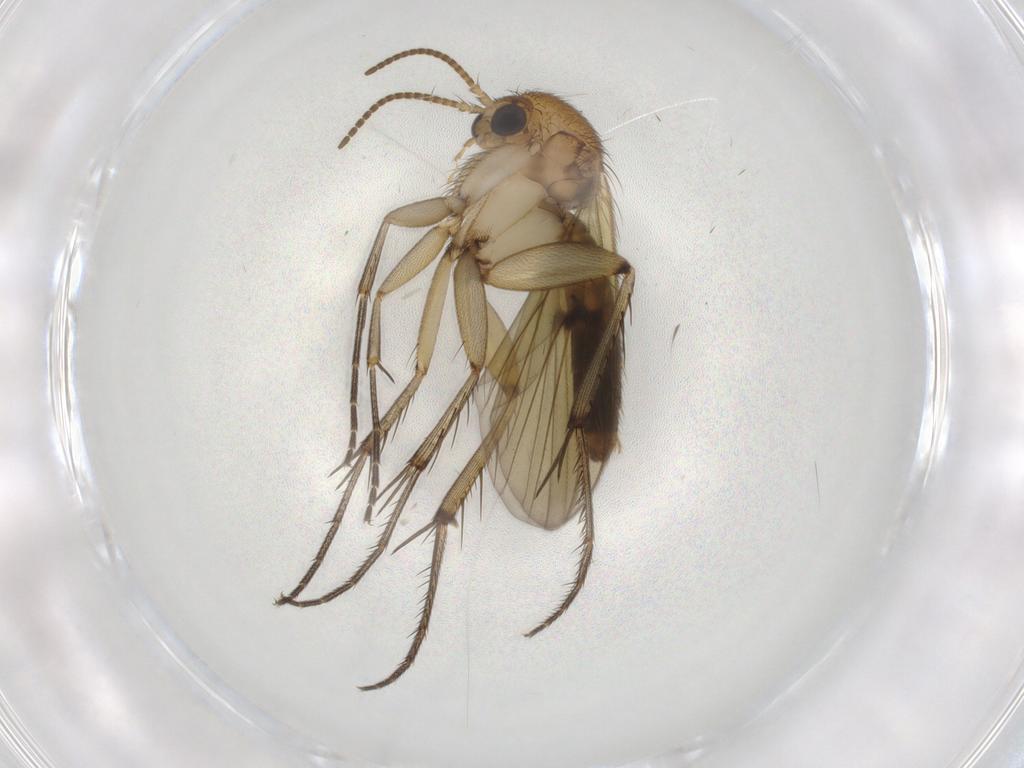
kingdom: Animalia
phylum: Arthropoda
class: Insecta
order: Diptera
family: Mycetophilidae
